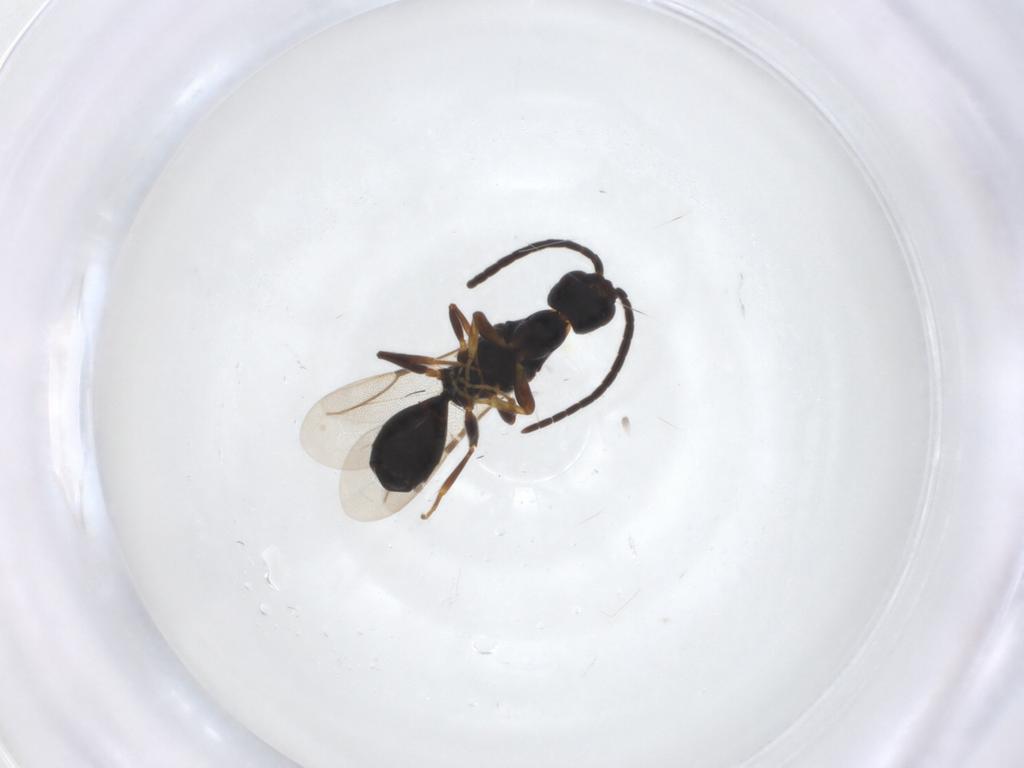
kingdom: Animalia
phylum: Arthropoda
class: Insecta
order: Hymenoptera
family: Bethylidae
